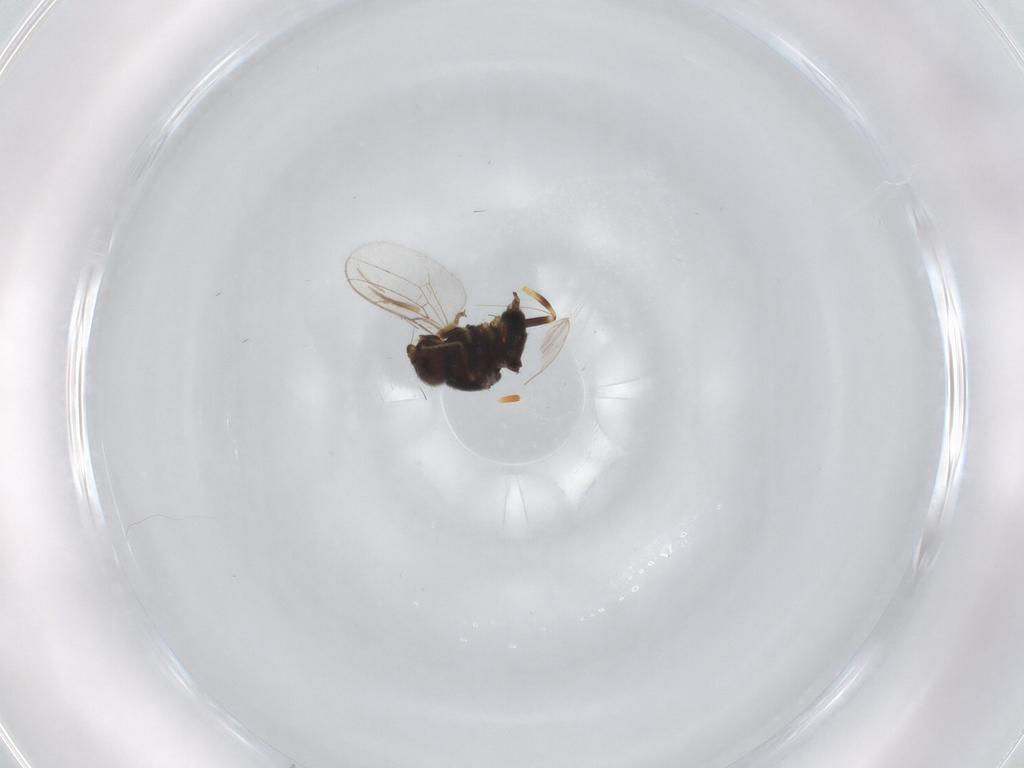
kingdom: Animalia
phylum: Arthropoda
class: Insecta
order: Diptera
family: Chloropidae
